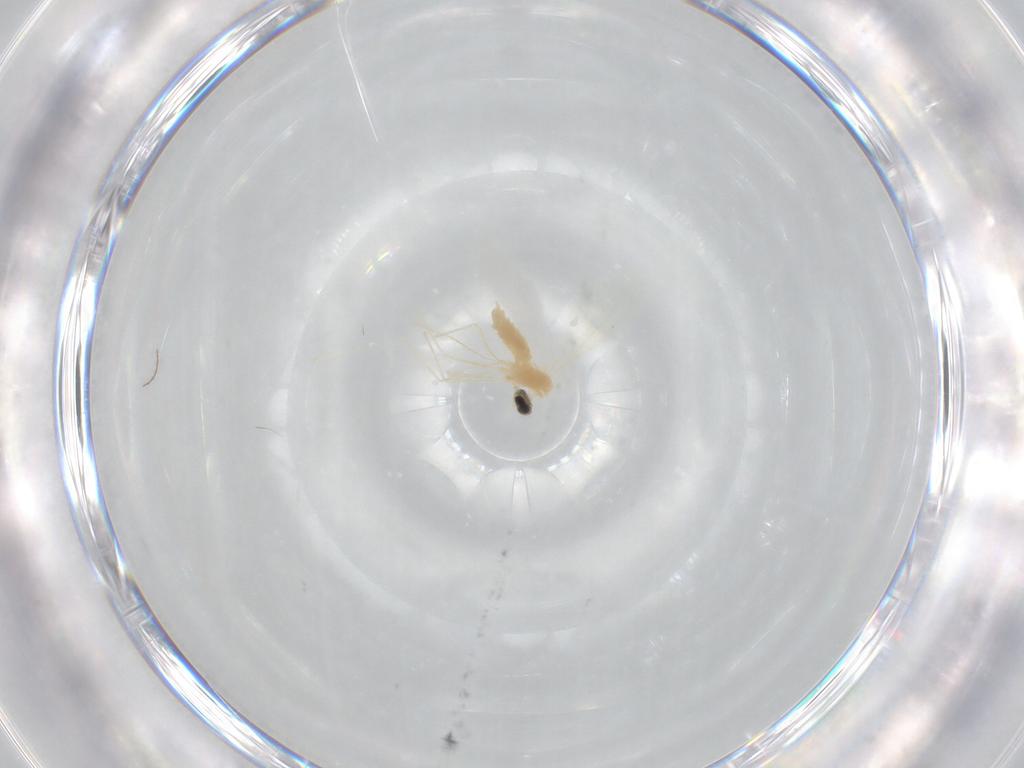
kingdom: Animalia
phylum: Arthropoda
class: Insecta
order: Diptera
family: Cecidomyiidae
